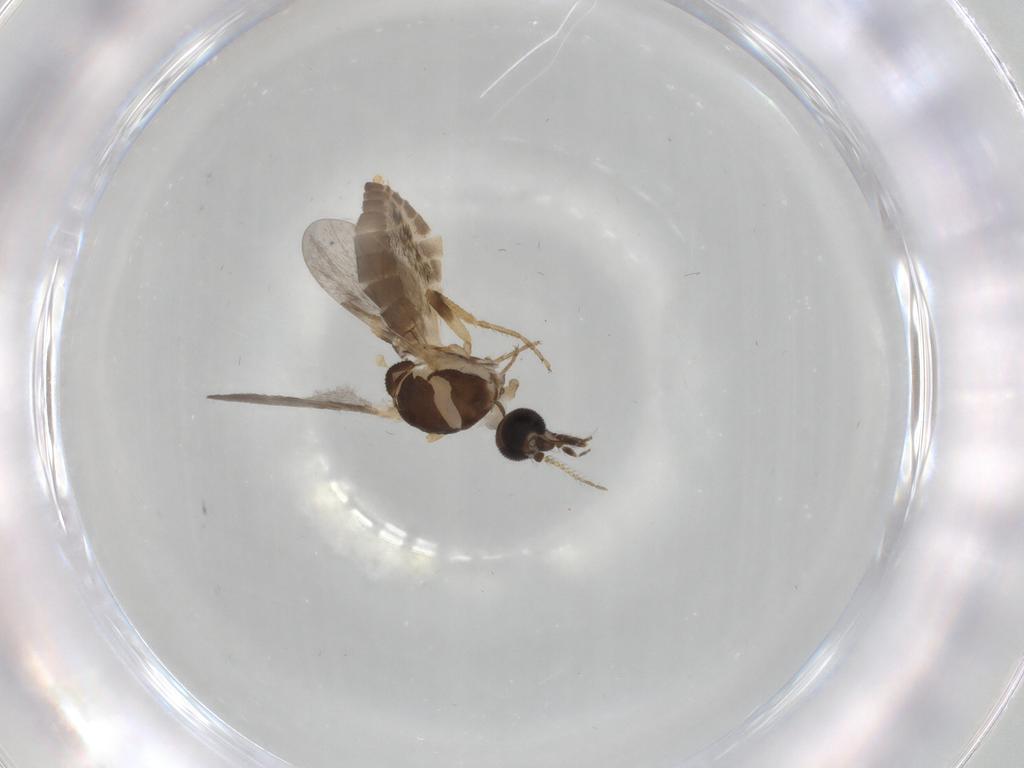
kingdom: Animalia
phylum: Arthropoda
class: Insecta
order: Diptera
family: Ceratopogonidae
